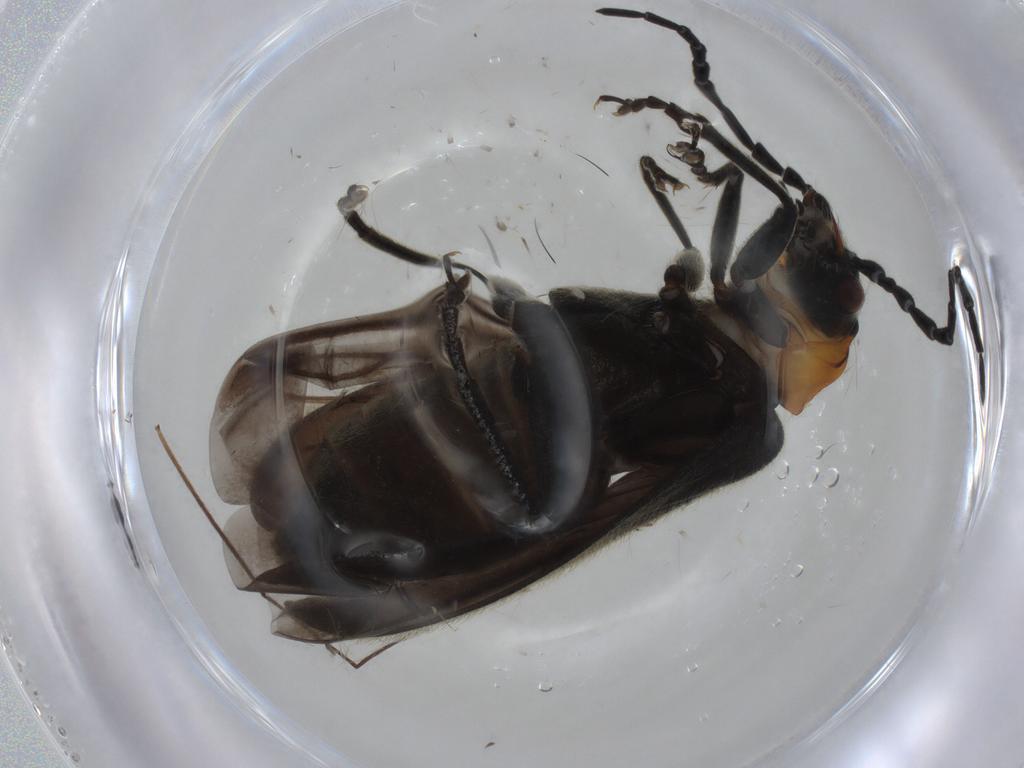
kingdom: Animalia
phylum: Arthropoda
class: Insecta
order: Coleoptera
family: Cantharidae
